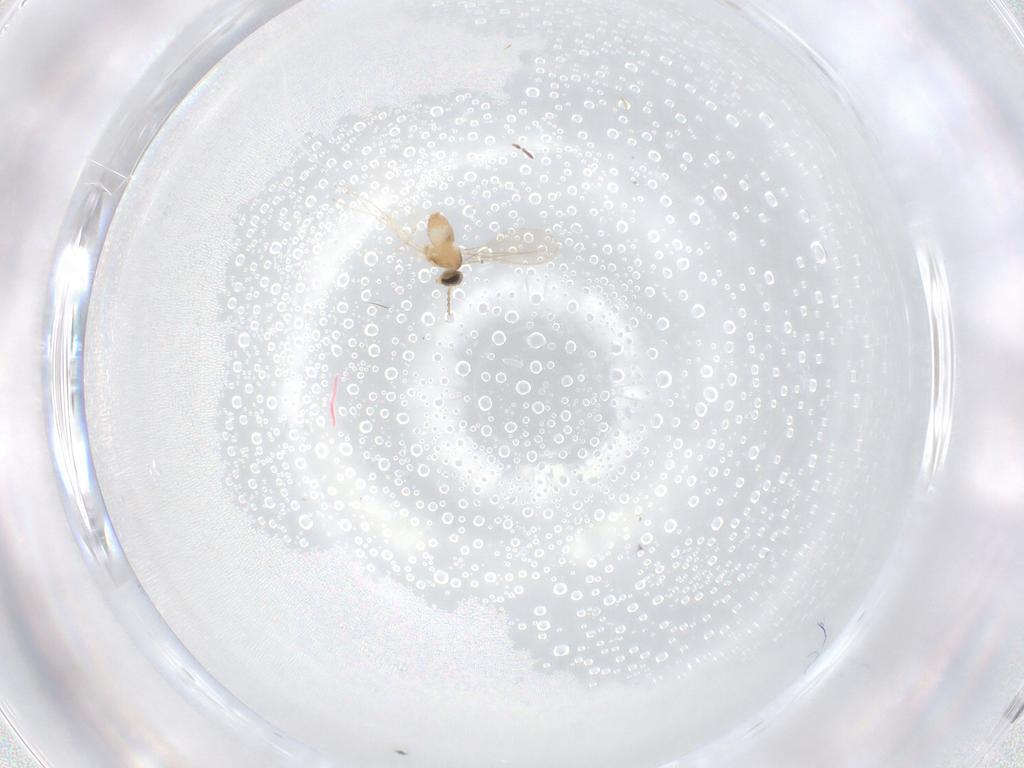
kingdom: Animalia
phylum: Arthropoda
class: Insecta
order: Diptera
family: Cecidomyiidae
